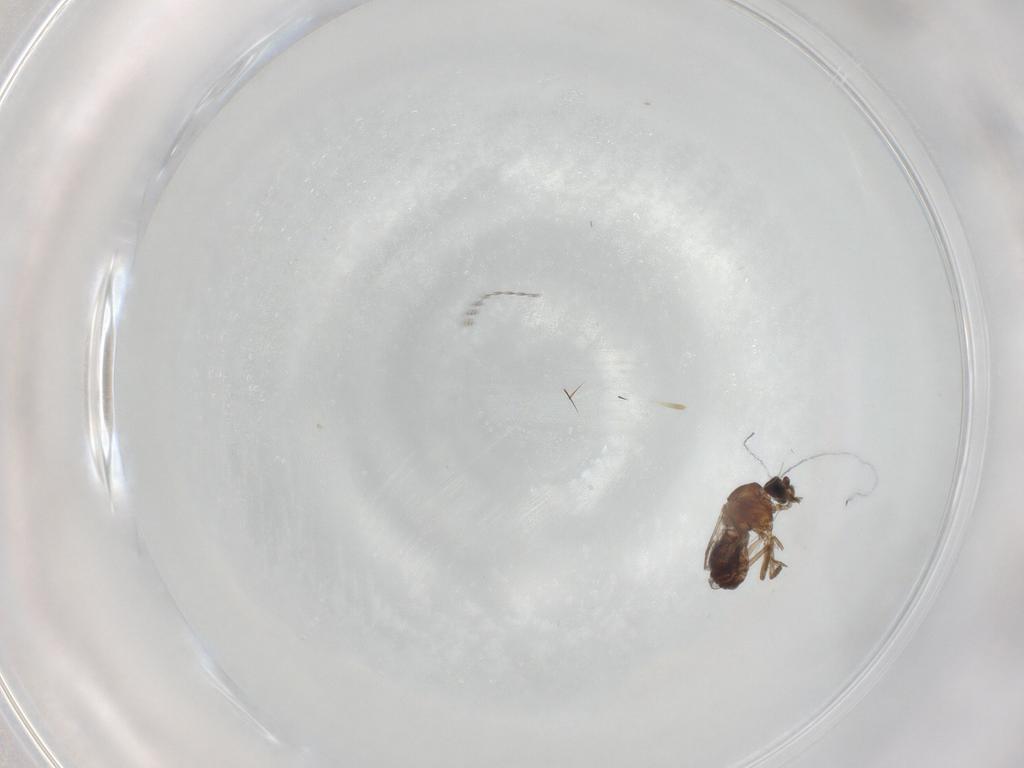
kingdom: Animalia
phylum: Arthropoda
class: Insecta
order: Diptera
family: Ceratopogonidae
